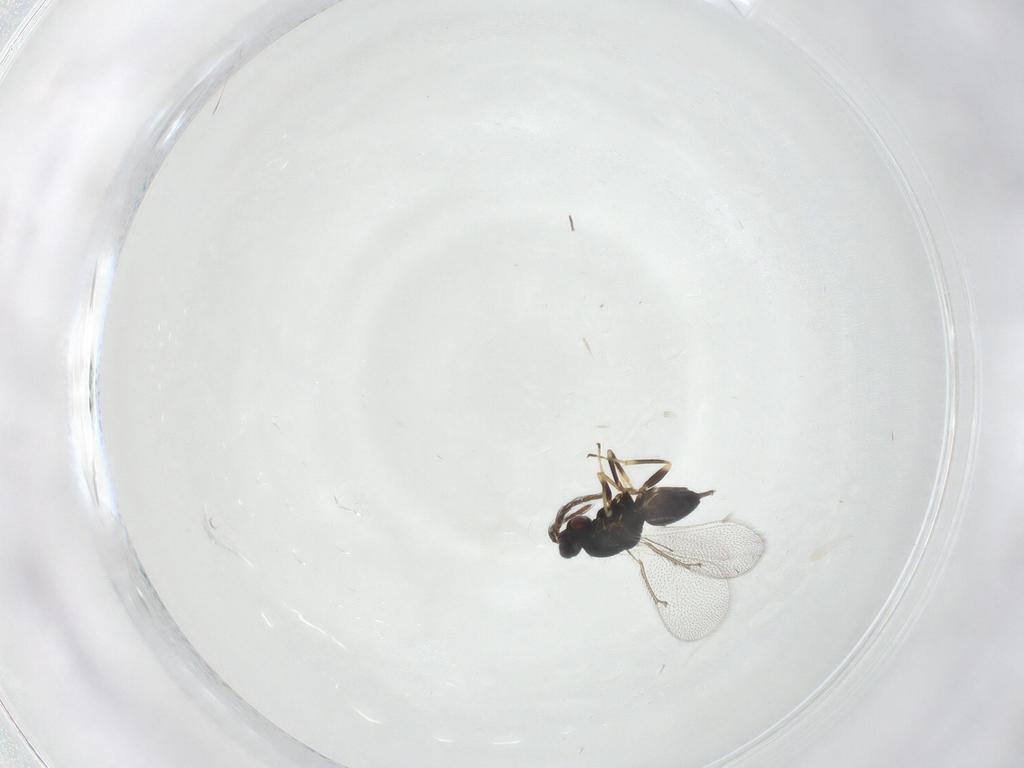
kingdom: Animalia
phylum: Arthropoda
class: Insecta
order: Hymenoptera
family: Eulophidae
